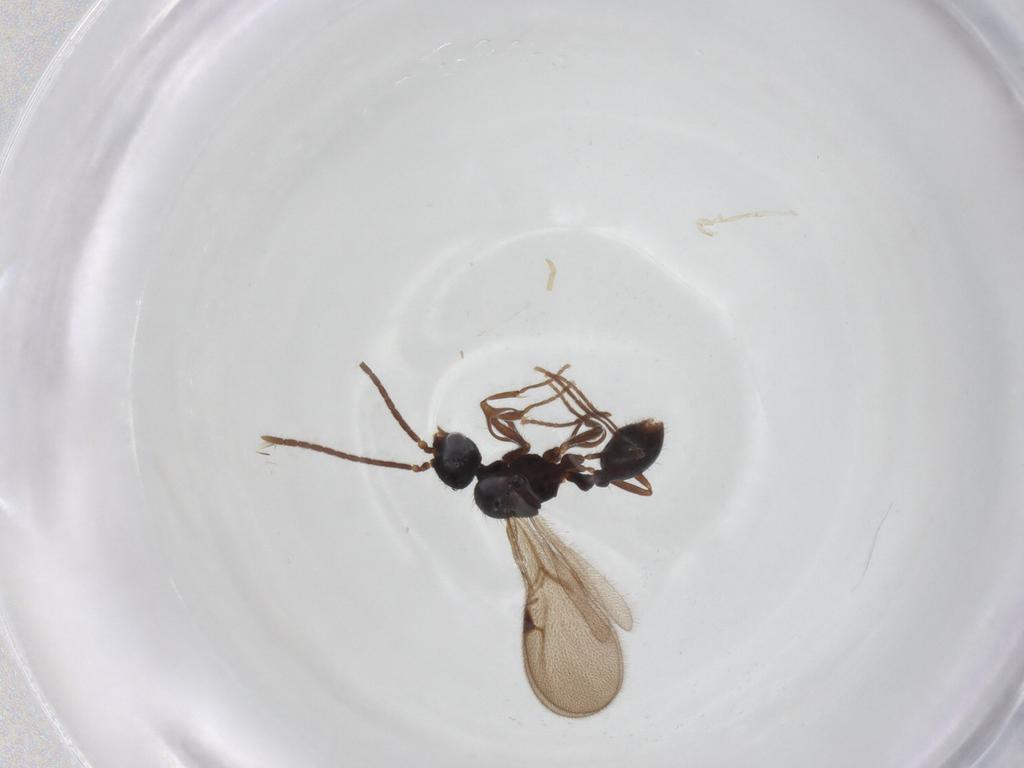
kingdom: Animalia
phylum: Arthropoda
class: Insecta
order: Hymenoptera
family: Formicidae
